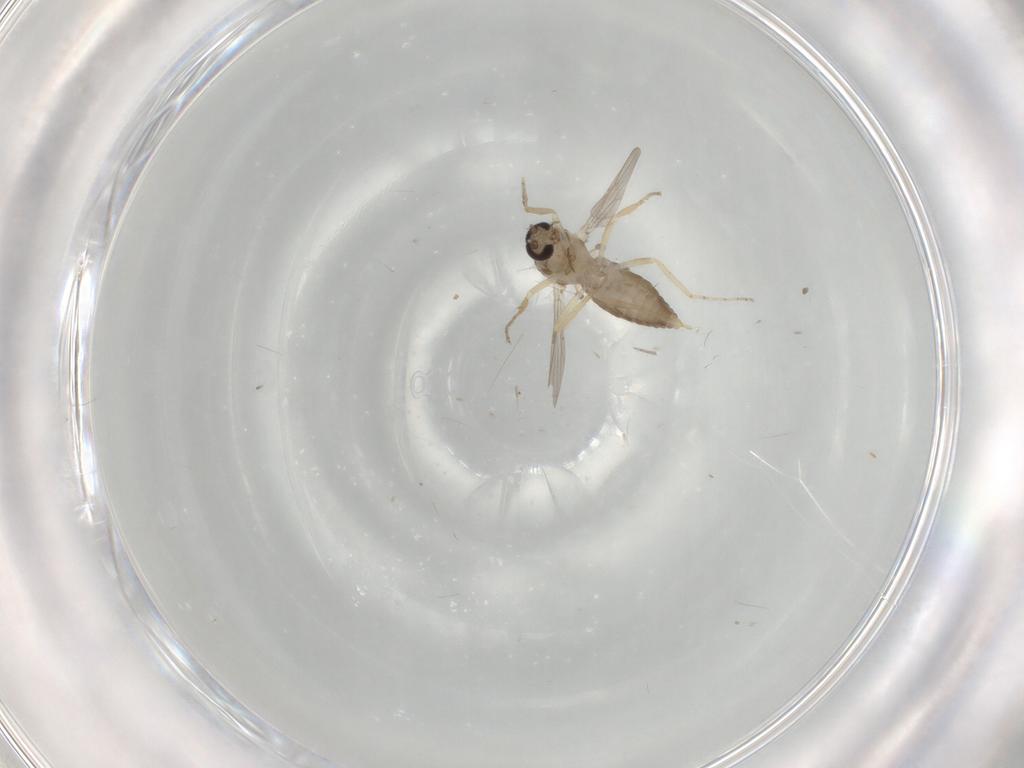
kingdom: Animalia
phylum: Arthropoda
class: Insecta
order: Diptera
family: Ceratopogonidae
